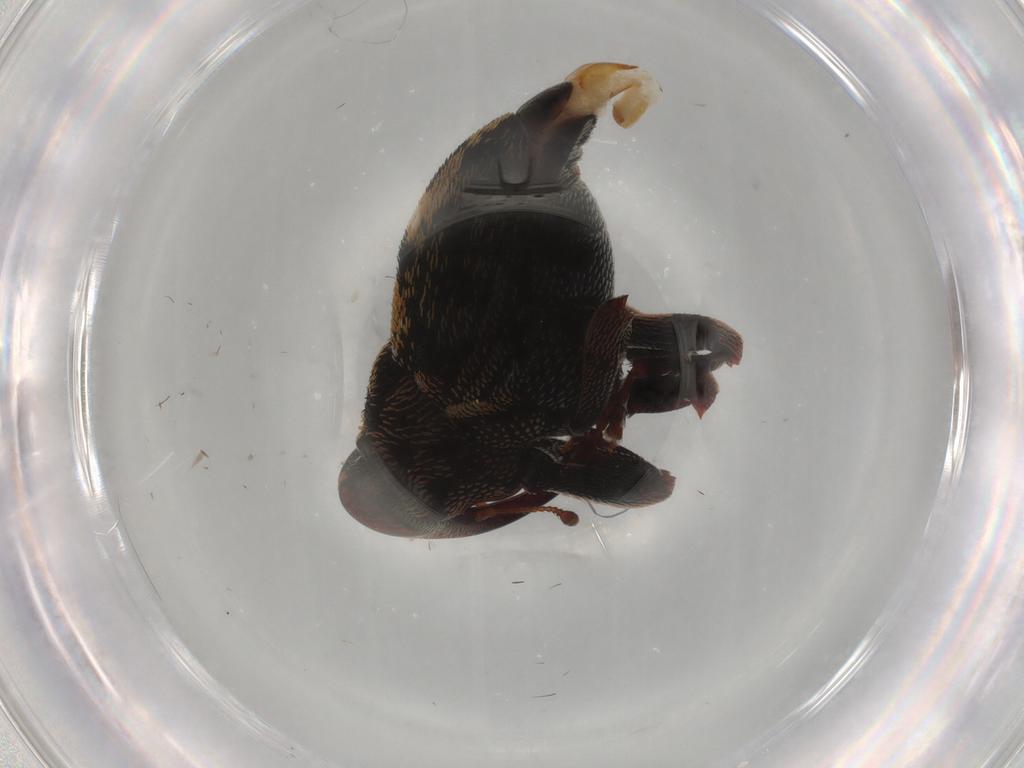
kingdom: Animalia
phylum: Arthropoda
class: Insecta
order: Coleoptera
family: Curculionidae
